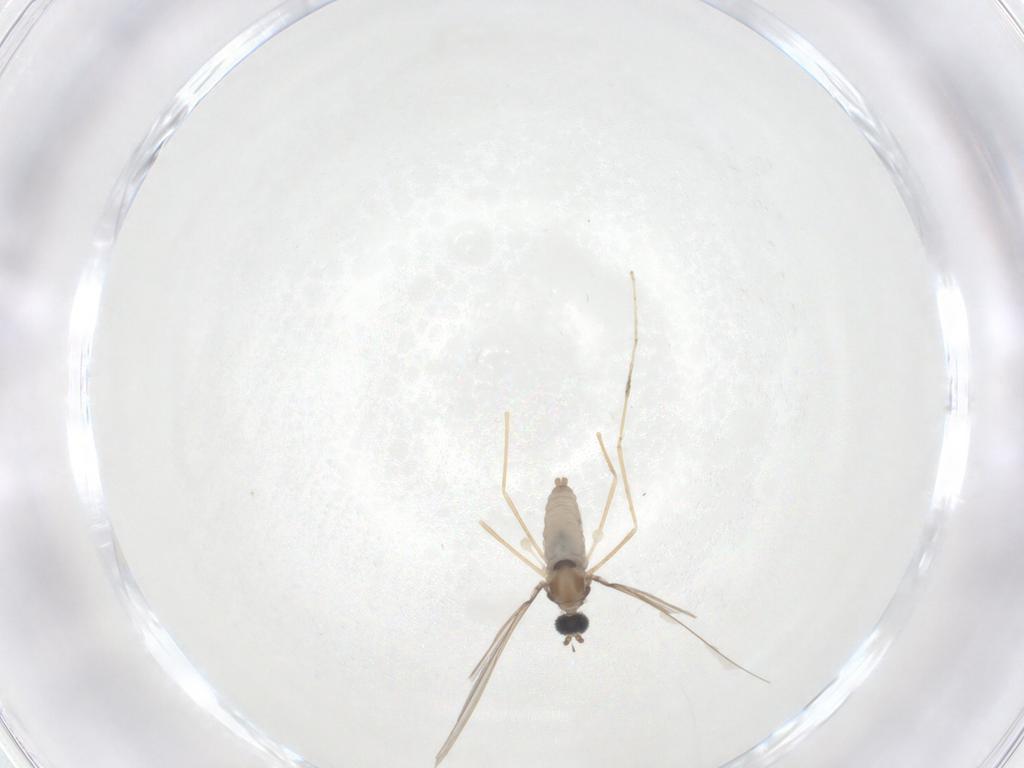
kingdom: Animalia
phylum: Arthropoda
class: Insecta
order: Diptera
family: Cecidomyiidae
